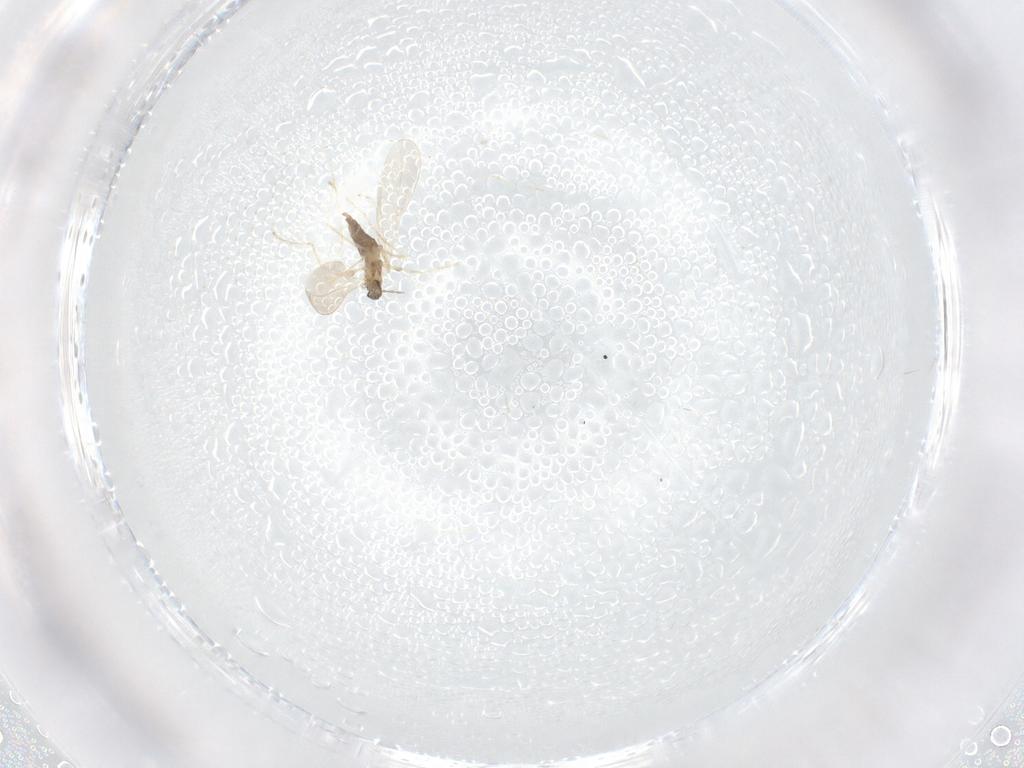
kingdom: Animalia
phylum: Arthropoda
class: Insecta
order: Diptera
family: Cecidomyiidae
